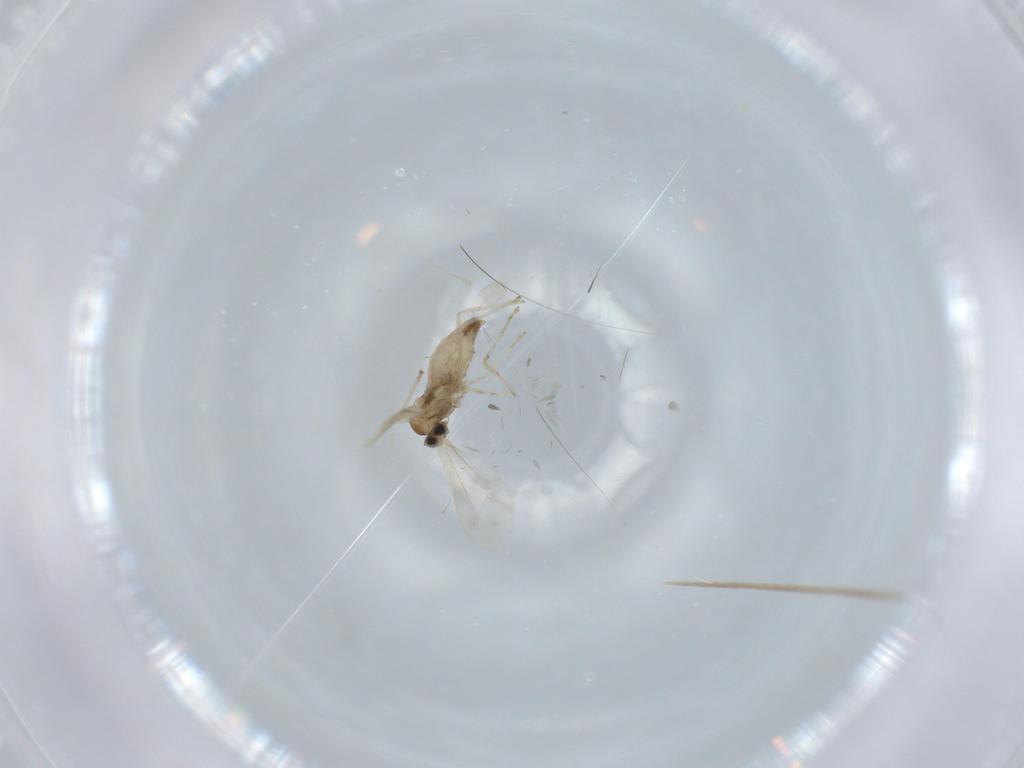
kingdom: Animalia
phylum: Arthropoda
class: Insecta
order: Diptera
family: Cecidomyiidae
